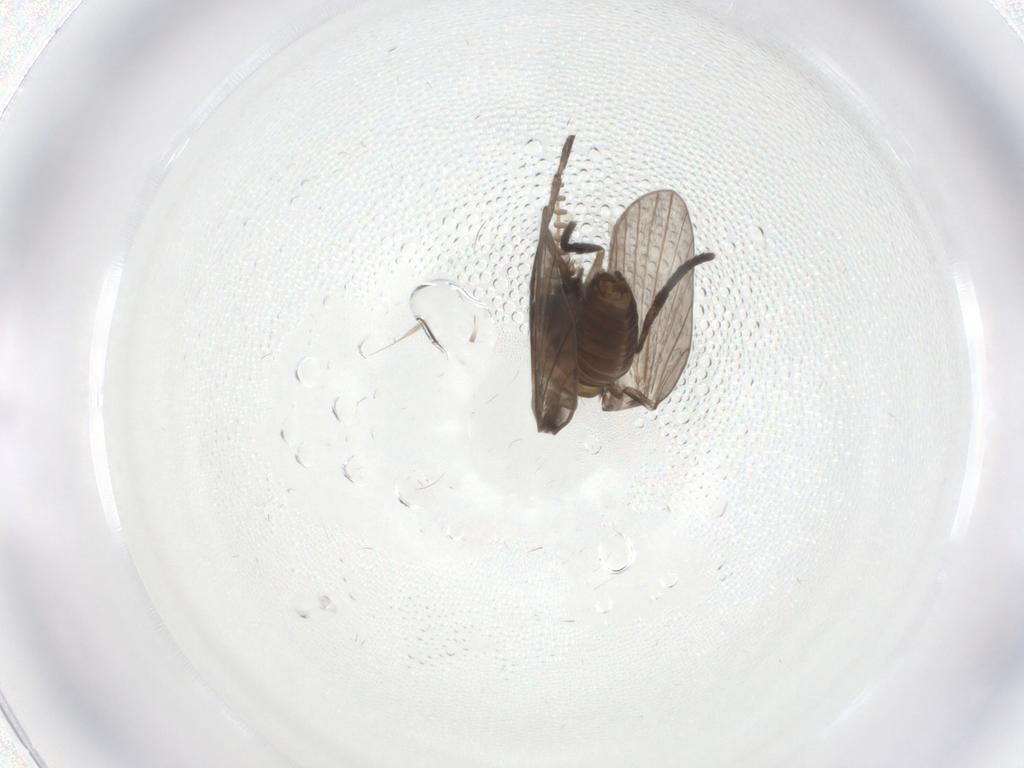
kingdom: Animalia
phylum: Arthropoda
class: Insecta
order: Diptera
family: Psychodidae
